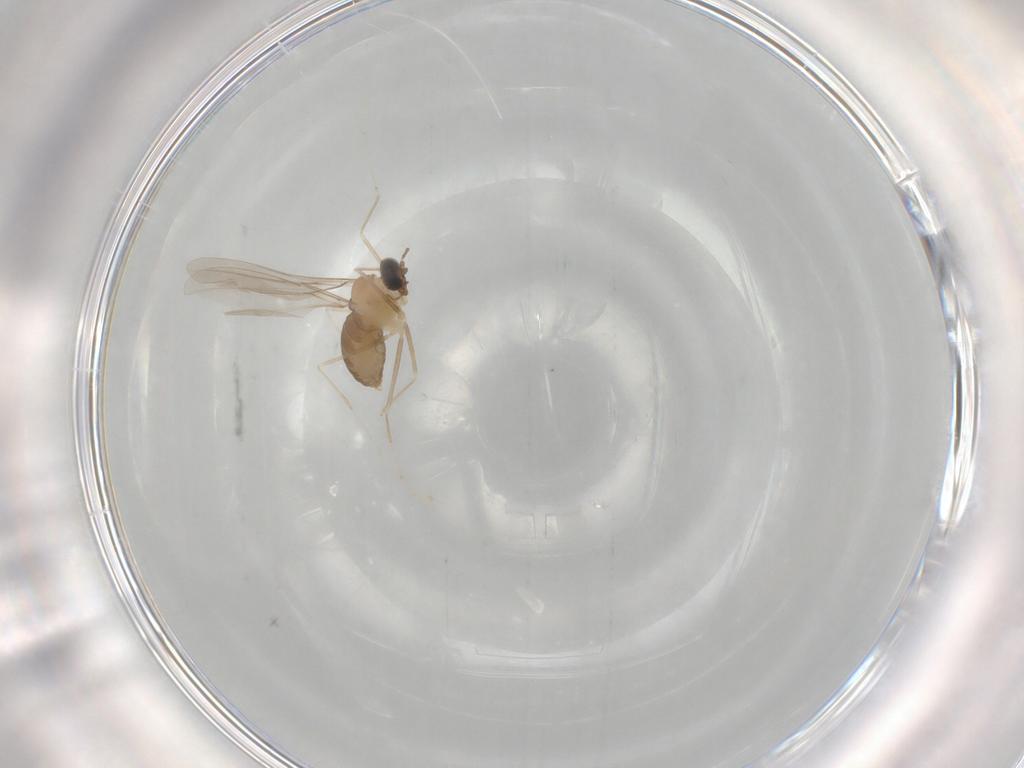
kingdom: Animalia
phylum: Arthropoda
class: Insecta
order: Diptera
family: Cecidomyiidae
